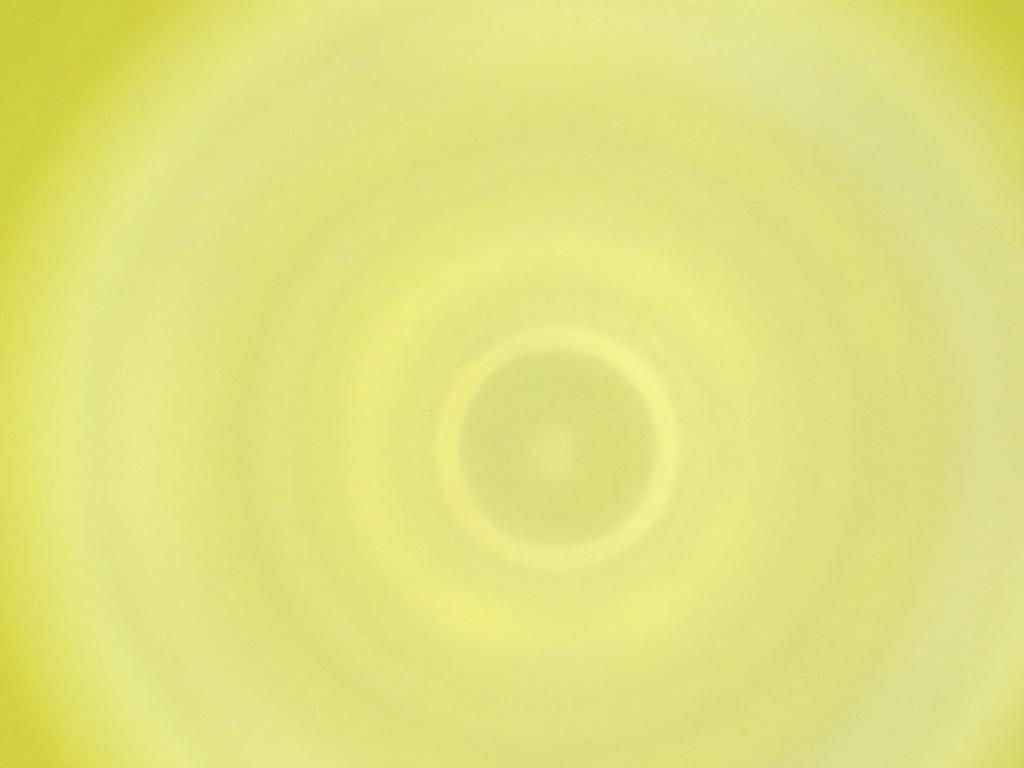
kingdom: Animalia
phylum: Arthropoda
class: Insecta
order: Diptera
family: Cecidomyiidae
